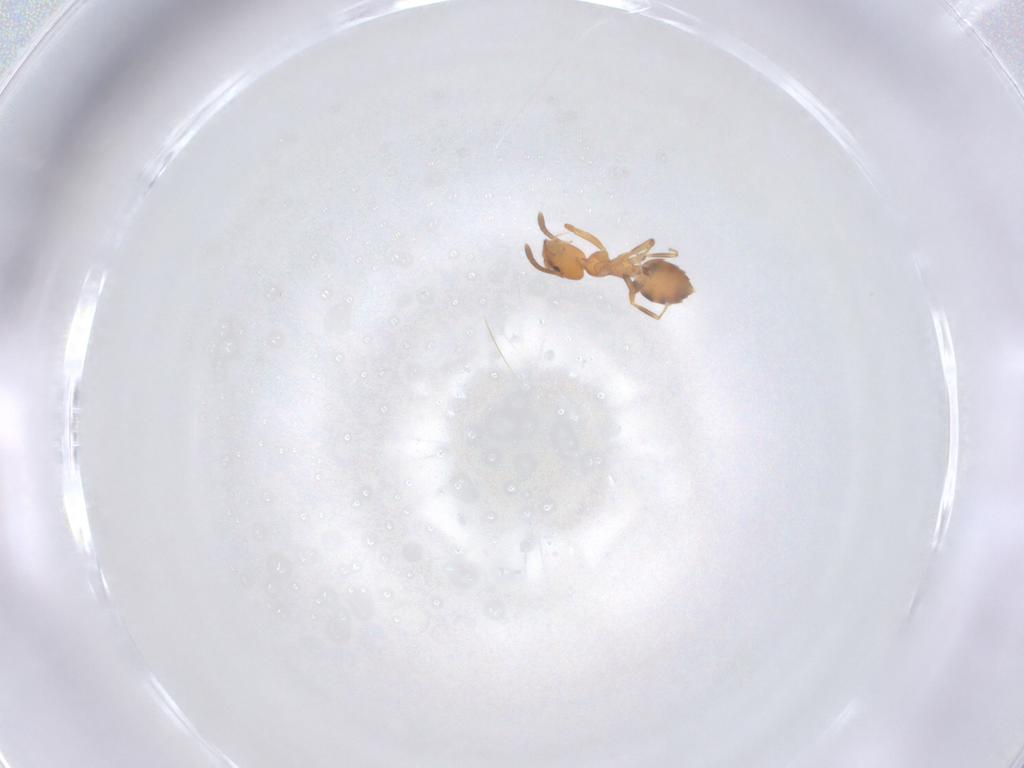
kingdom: Animalia
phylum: Arthropoda
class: Insecta
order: Hymenoptera
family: Formicidae
